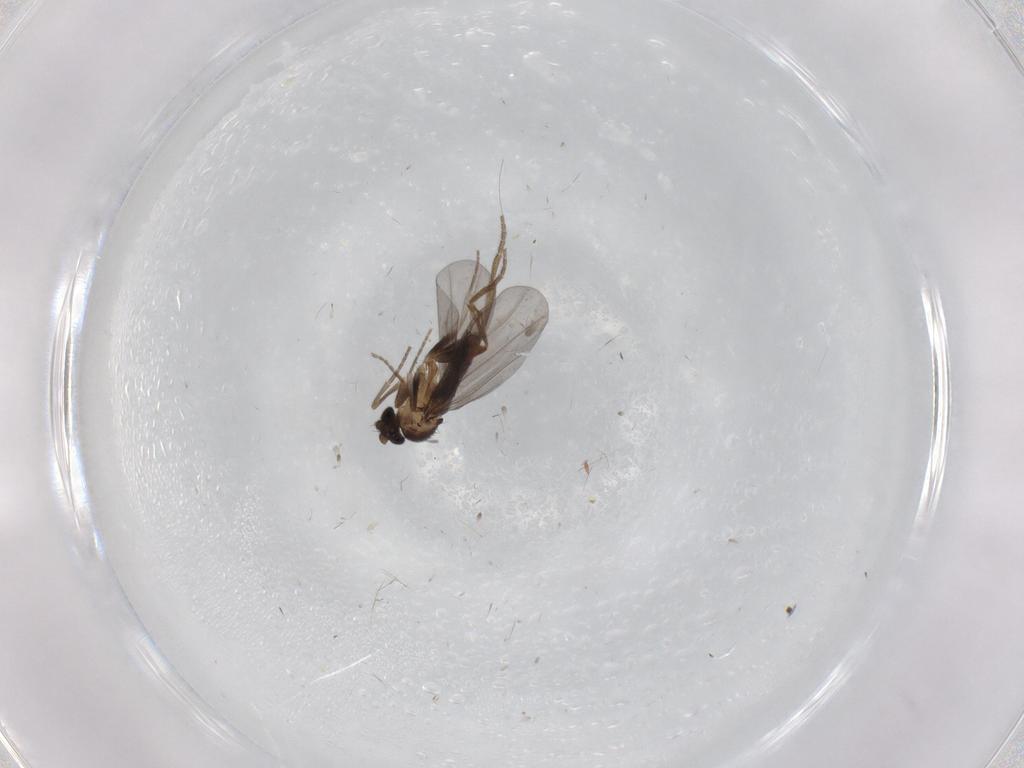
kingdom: Animalia
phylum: Arthropoda
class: Insecta
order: Diptera
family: Phoridae
